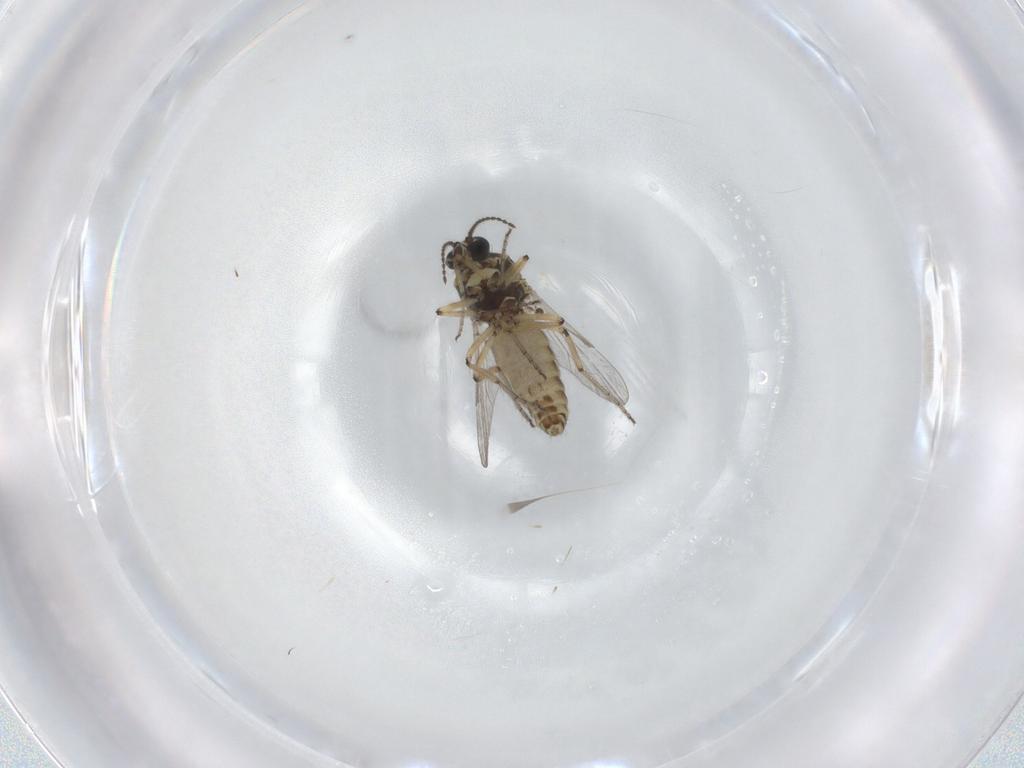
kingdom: Animalia
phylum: Arthropoda
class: Insecta
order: Diptera
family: Ceratopogonidae
